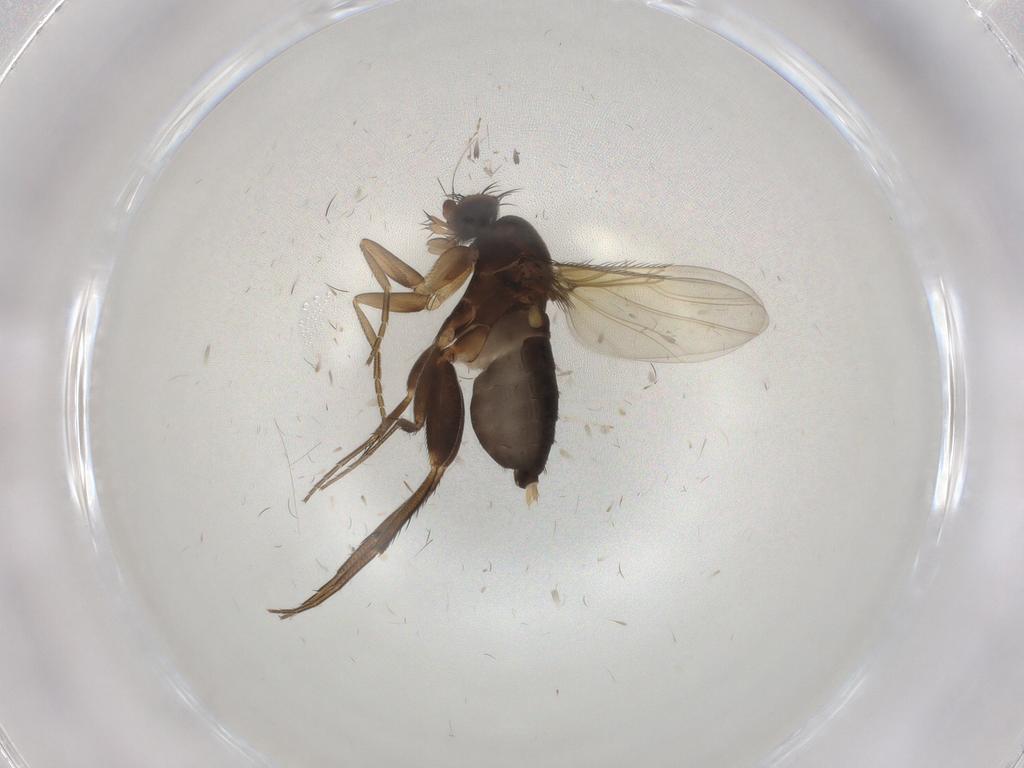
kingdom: Animalia
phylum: Arthropoda
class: Insecta
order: Diptera
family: Phoridae
